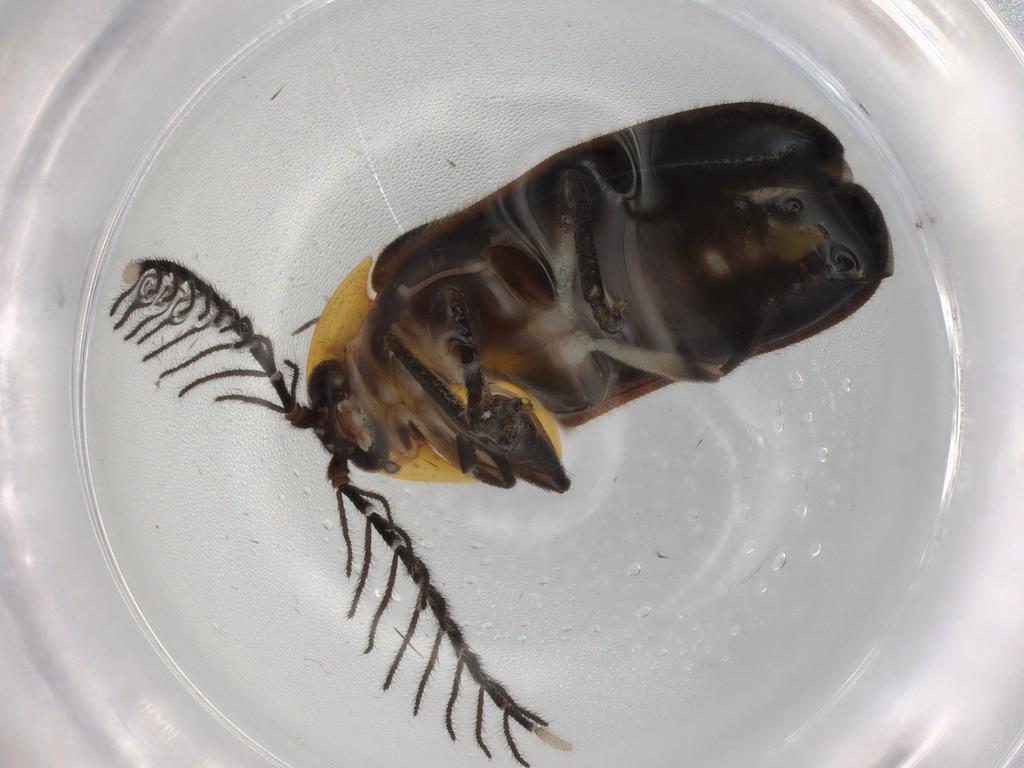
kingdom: Animalia
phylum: Arthropoda
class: Insecta
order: Coleoptera
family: Lampyridae
